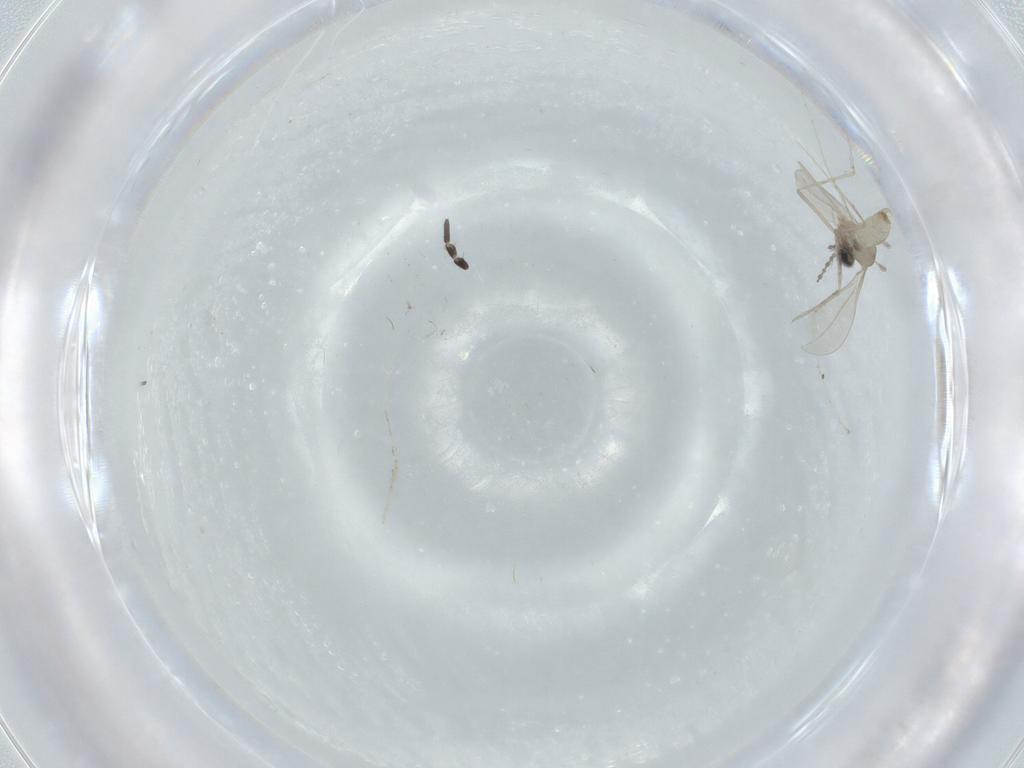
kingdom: Animalia
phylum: Arthropoda
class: Insecta
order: Diptera
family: Cecidomyiidae
